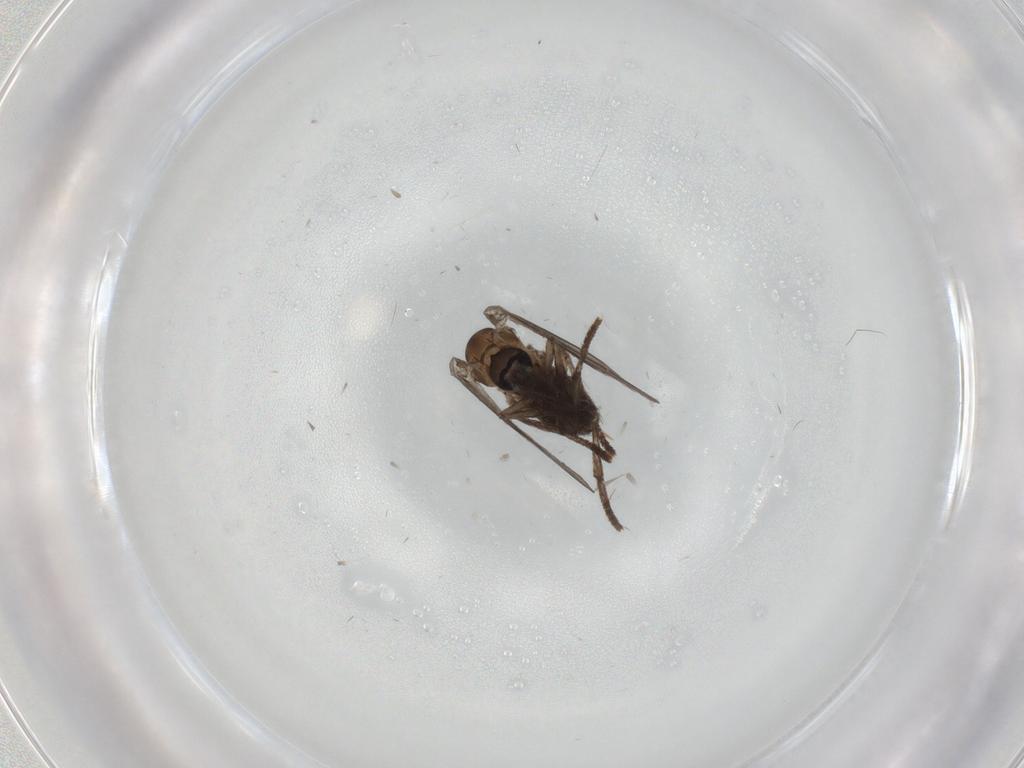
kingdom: Animalia
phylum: Arthropoda
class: Insecta
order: Diptera
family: Psychodidae
